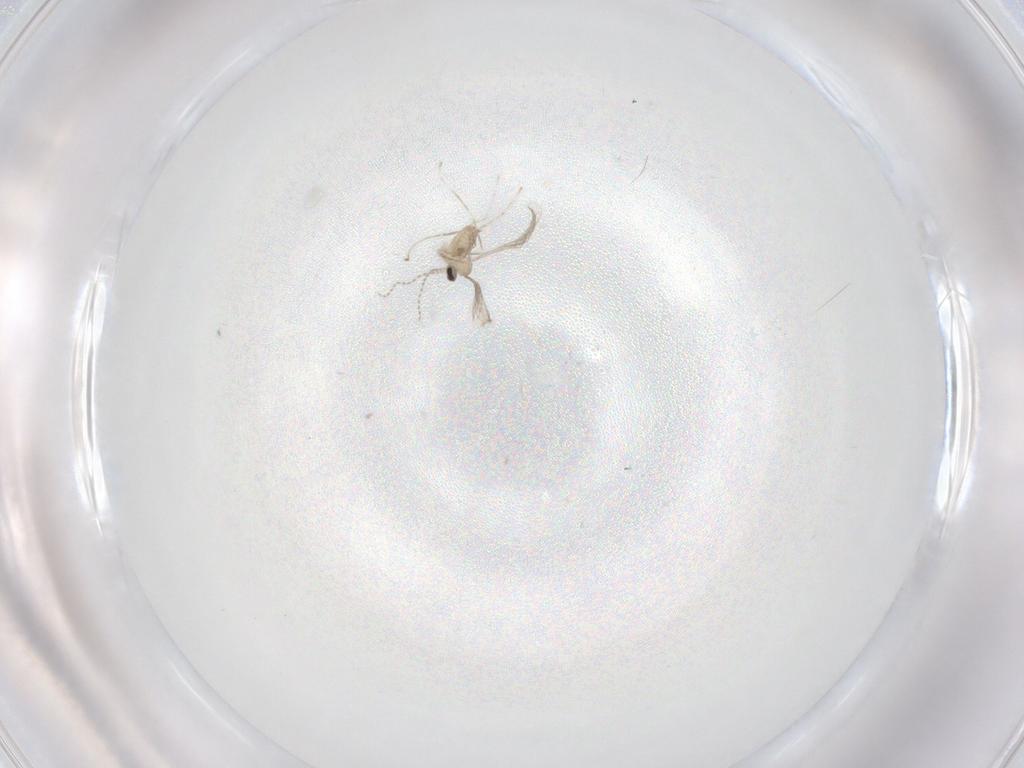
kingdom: Animalia
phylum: Arthropoda
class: Insecta
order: Diptera
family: Cecidomyiidae
